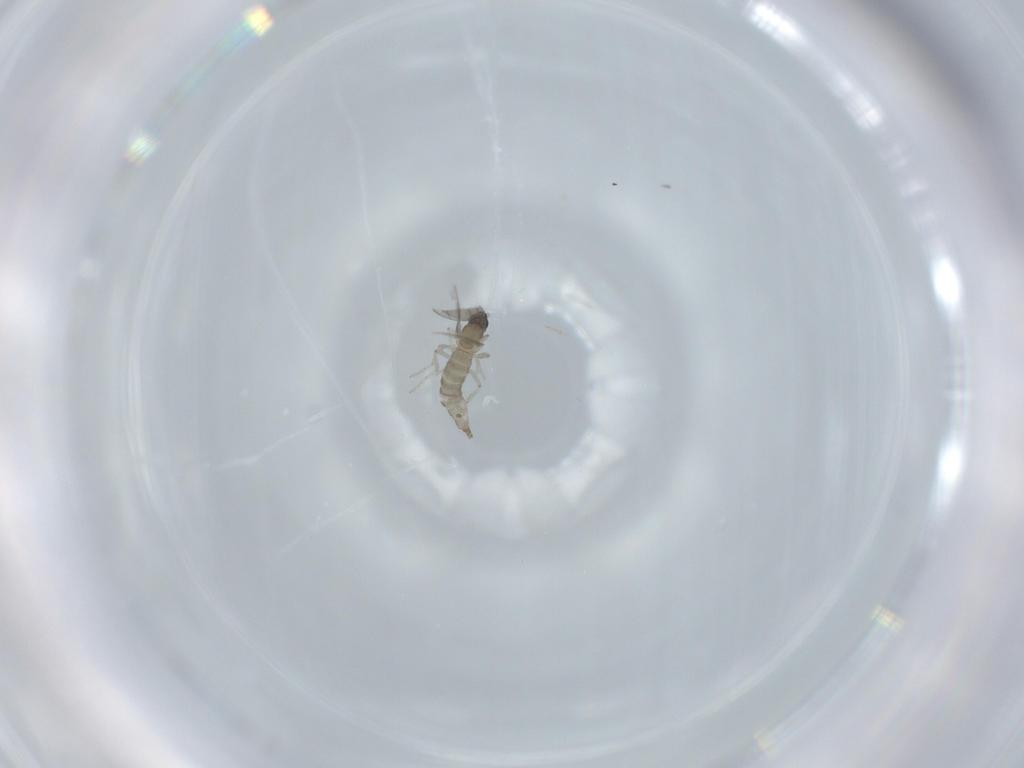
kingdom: Animalia
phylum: Arthropoda
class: Insecta
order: Diptera
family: Cecidomyiidae
